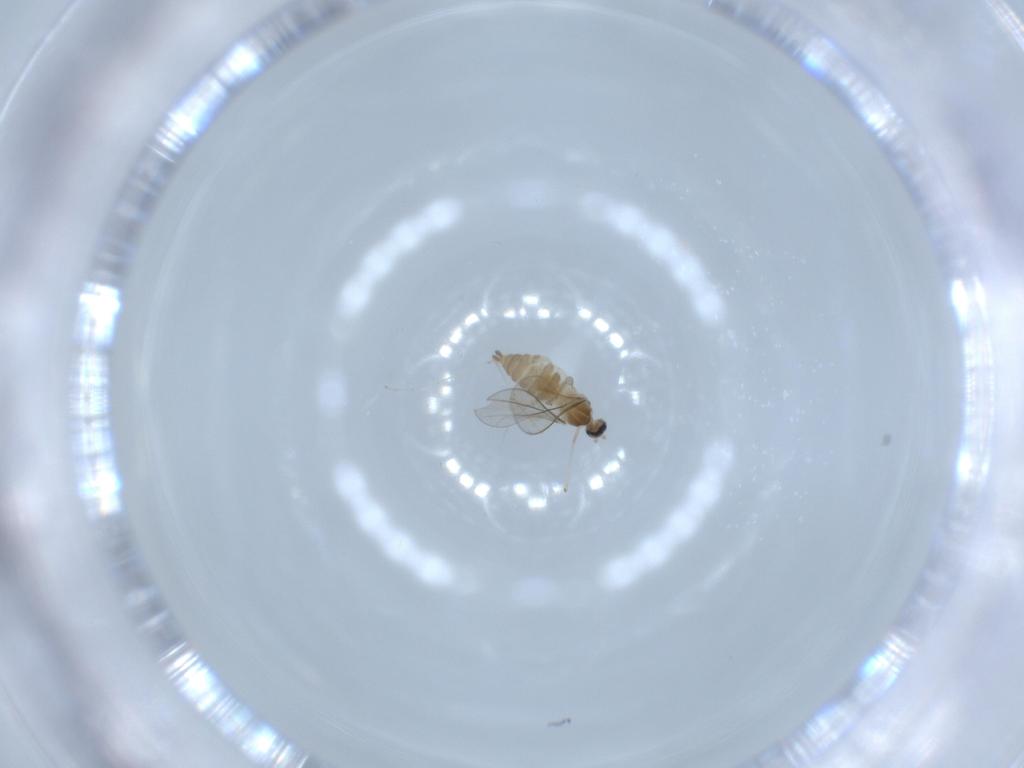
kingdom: Animalia
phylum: Arthropoda
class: Insecta
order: Diptera
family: Cecidomyiidae
